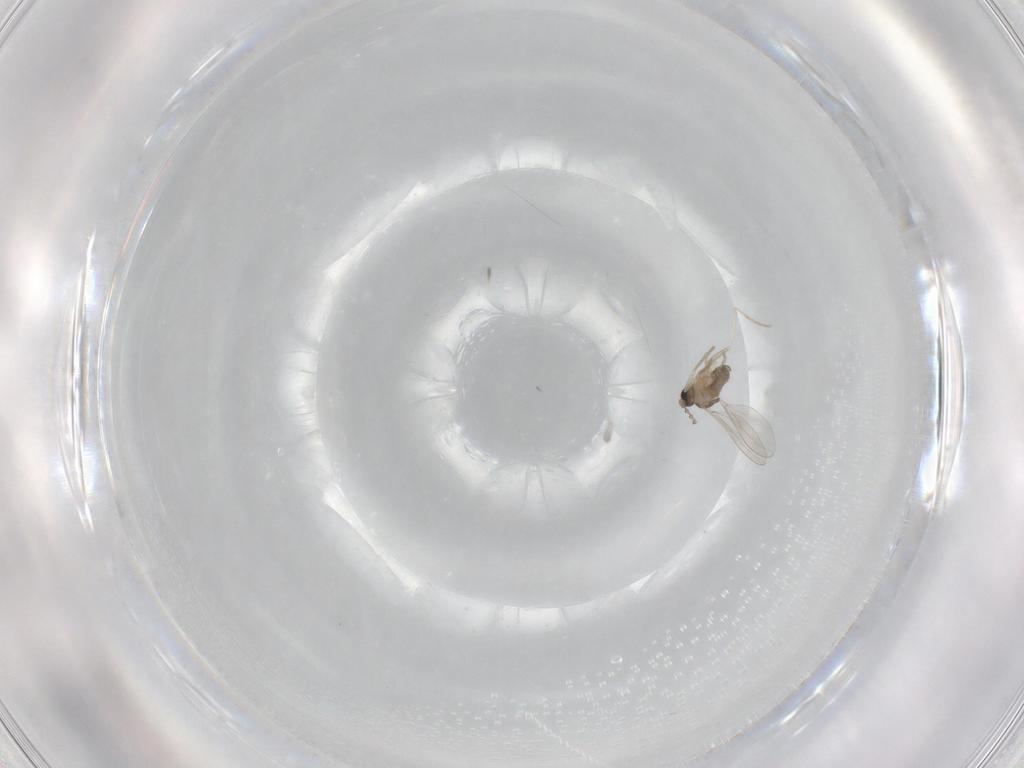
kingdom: Animalia
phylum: Arthropoda
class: Insecta
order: Diptera
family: Cecidomyiidae
